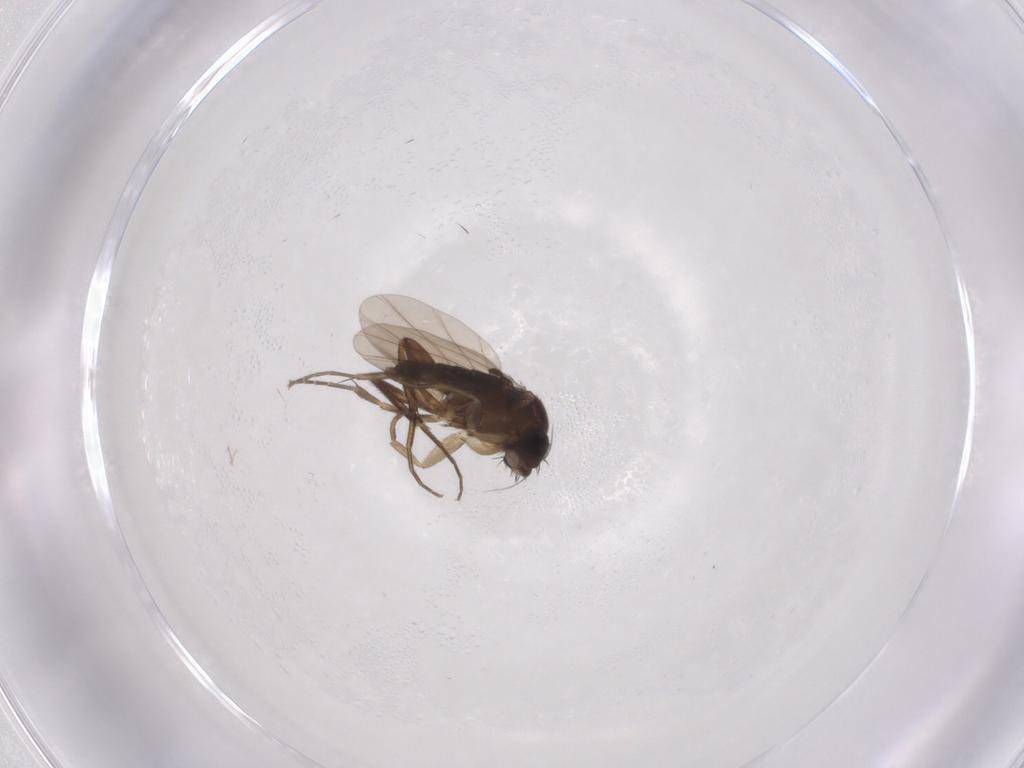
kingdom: Animalia
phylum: Arthropoda
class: Insecta
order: Diptera
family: Phoridae
